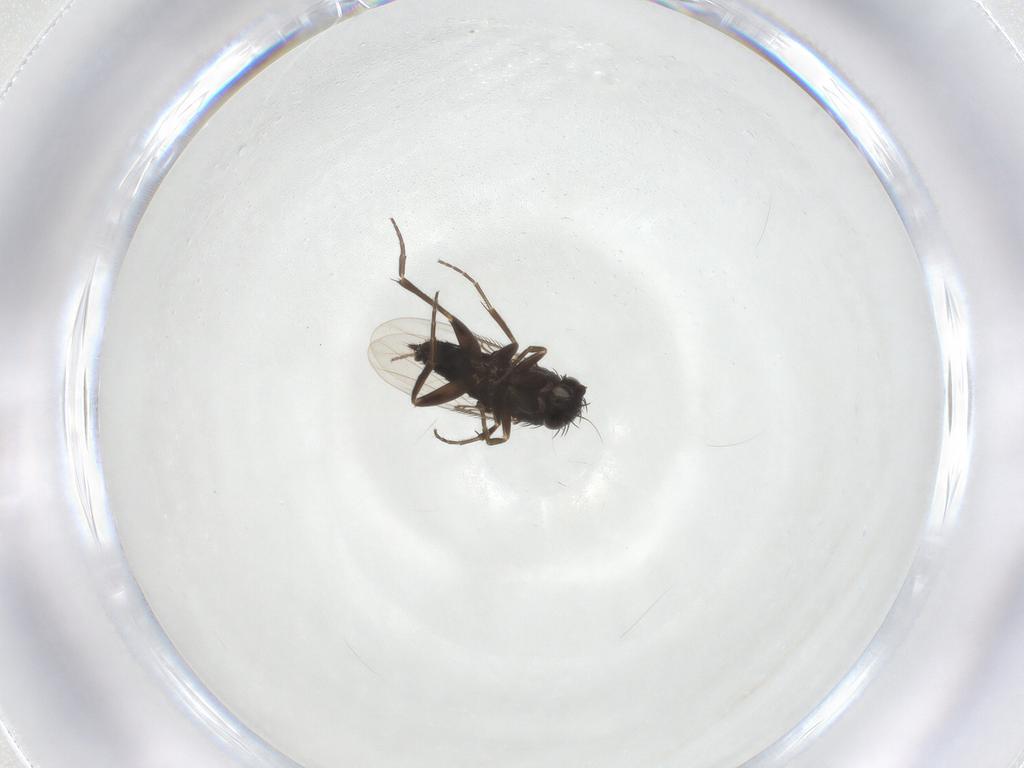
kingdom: Animalia
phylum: Arthropoda
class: Insecta
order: Diptera
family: Phoridae
